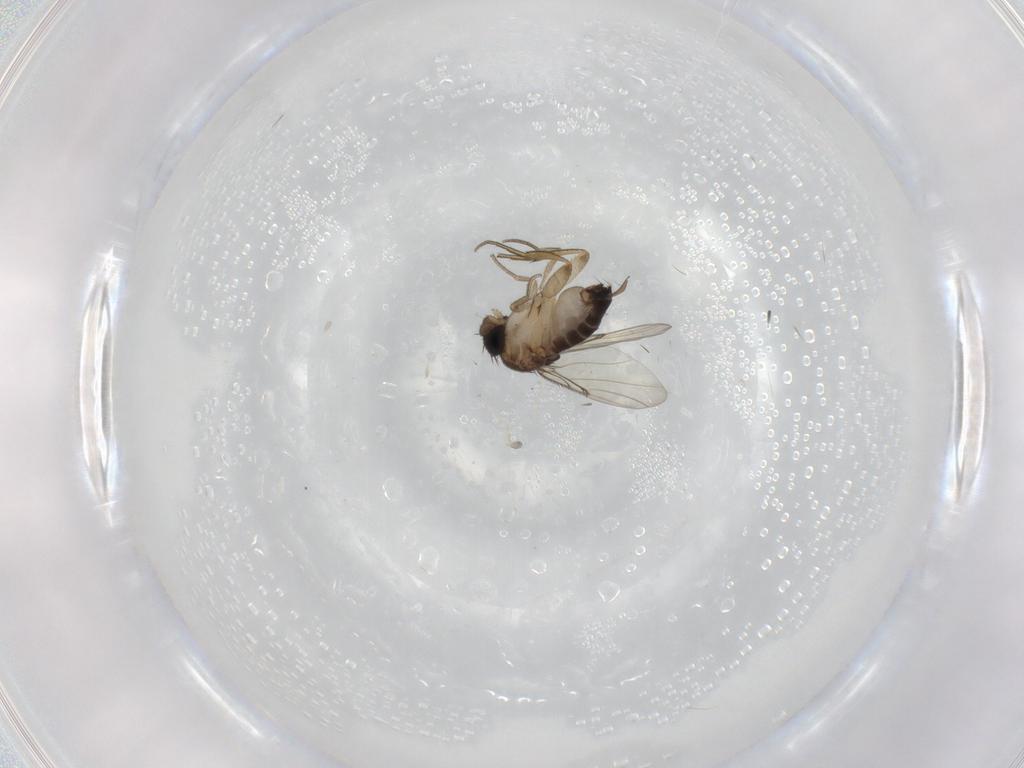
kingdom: Animalia
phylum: Arthropoda
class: Insecta
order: Diptera
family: Cecidomyiidae
